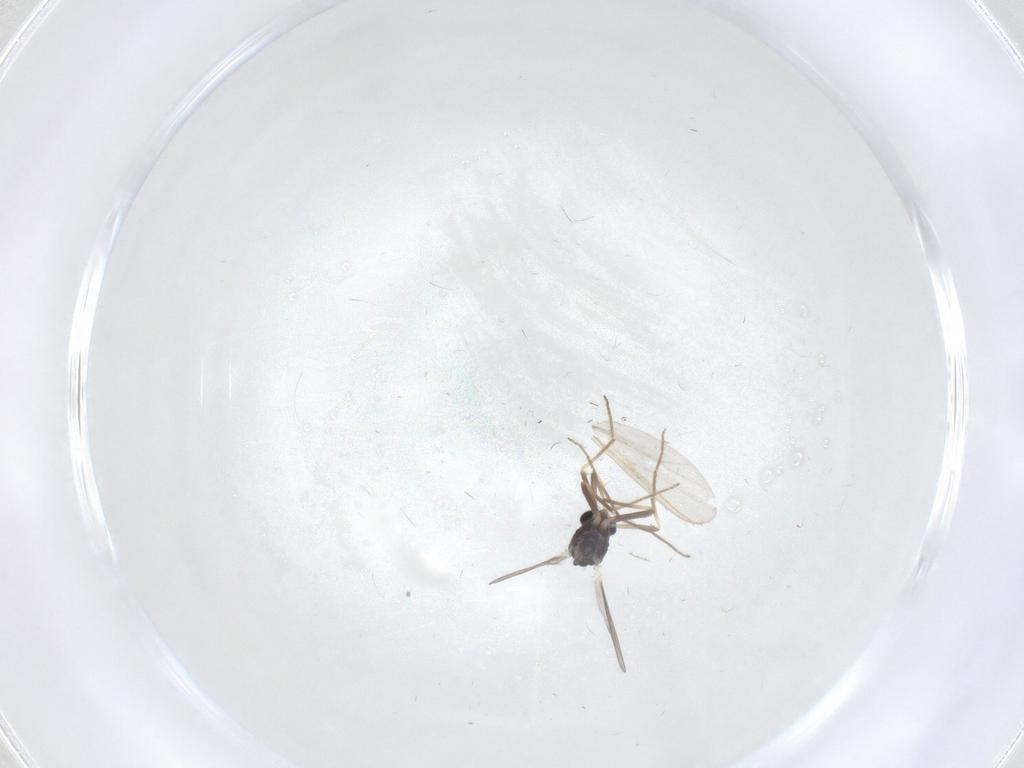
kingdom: Animalia
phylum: Arthropoda
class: Insecta
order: Diptera
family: Chironomidae
